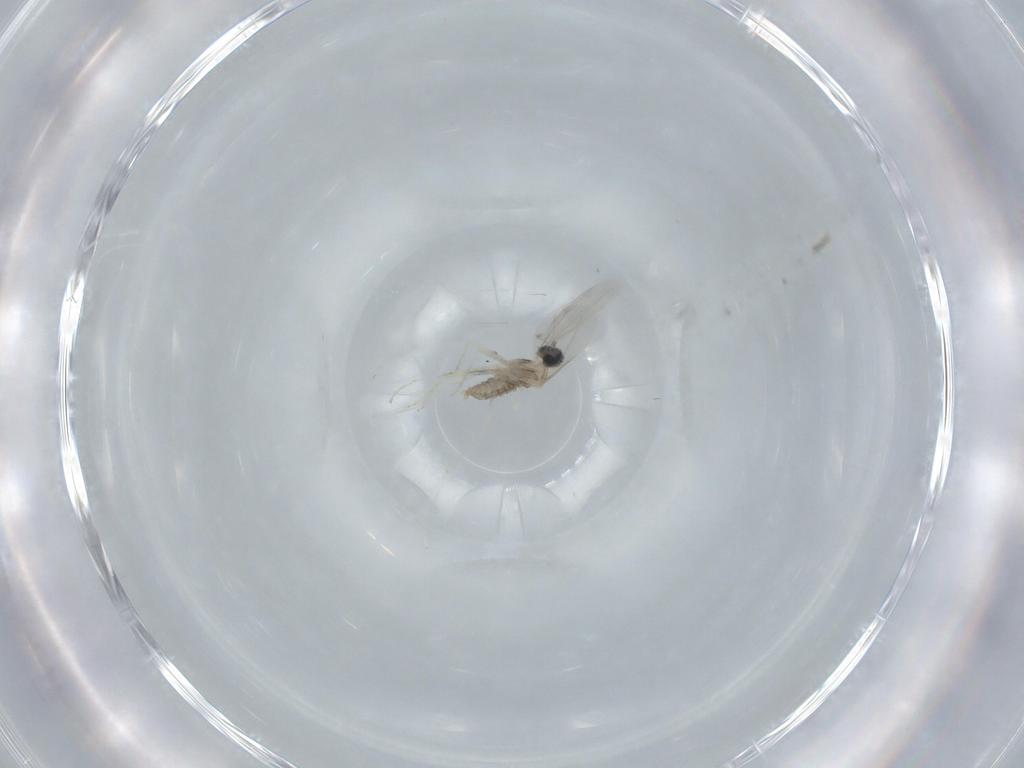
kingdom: Animalia
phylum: Arthropoda
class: Insecta
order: Diptera
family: Cecidomyiidae
